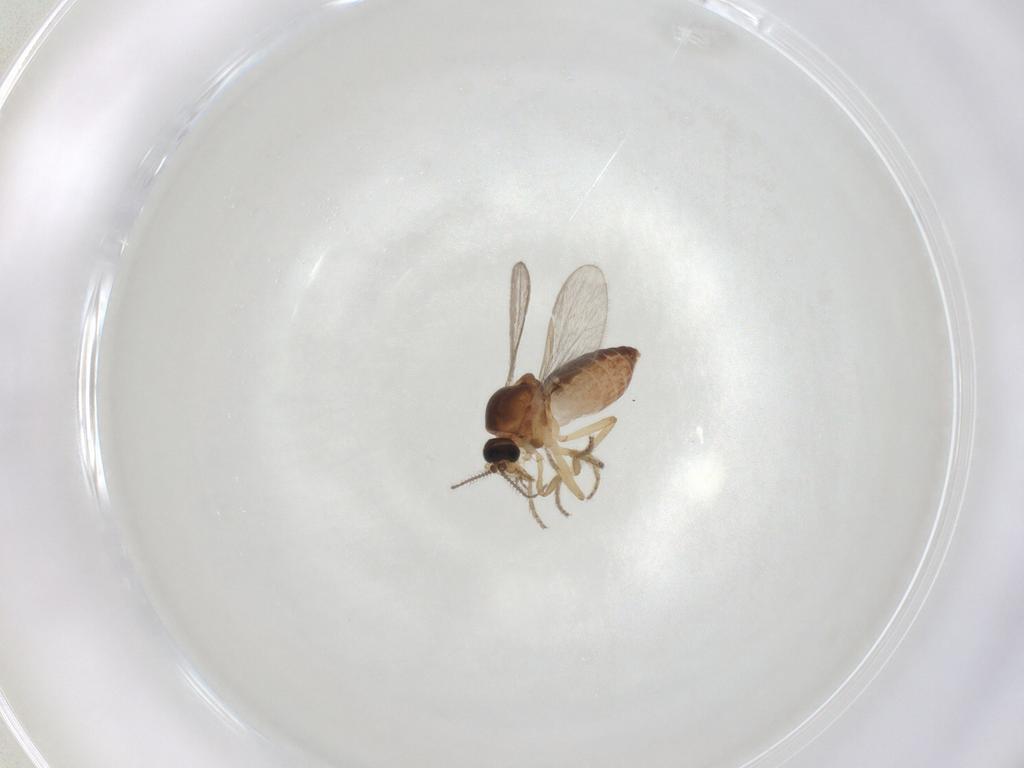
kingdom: Animalia
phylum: Arthropoda
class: Insecta
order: Diptera
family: Ceratopogonidae
